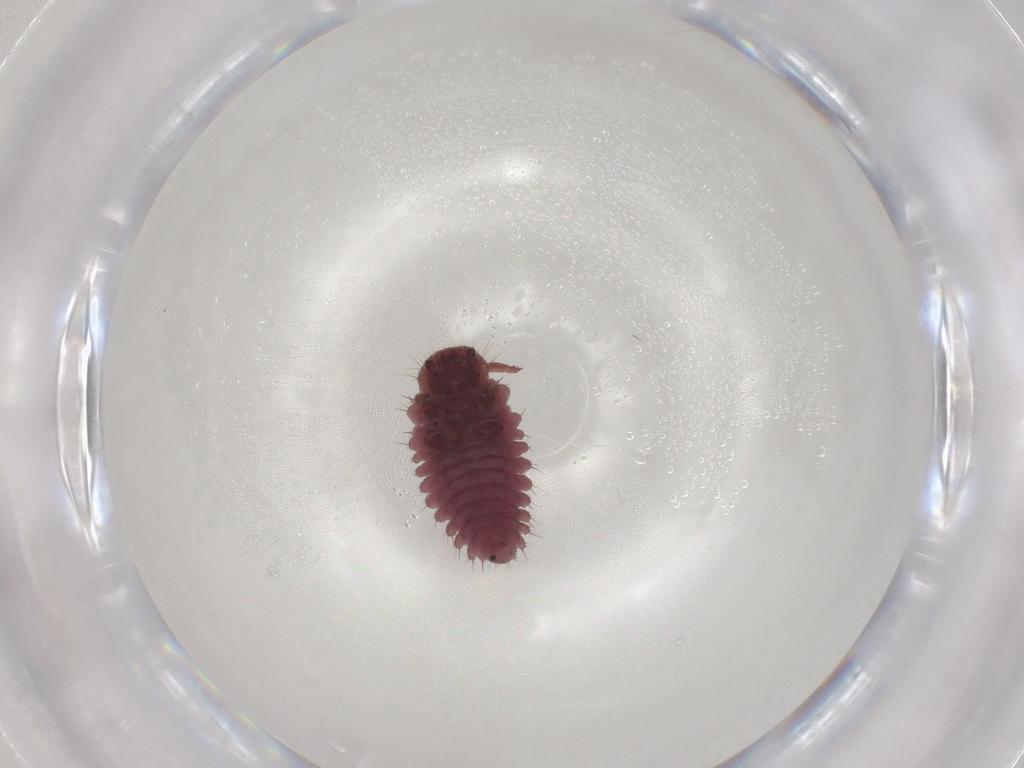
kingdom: Animalia
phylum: Arthropoda
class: Insecta
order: Coleoptera
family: Coccinellidae
